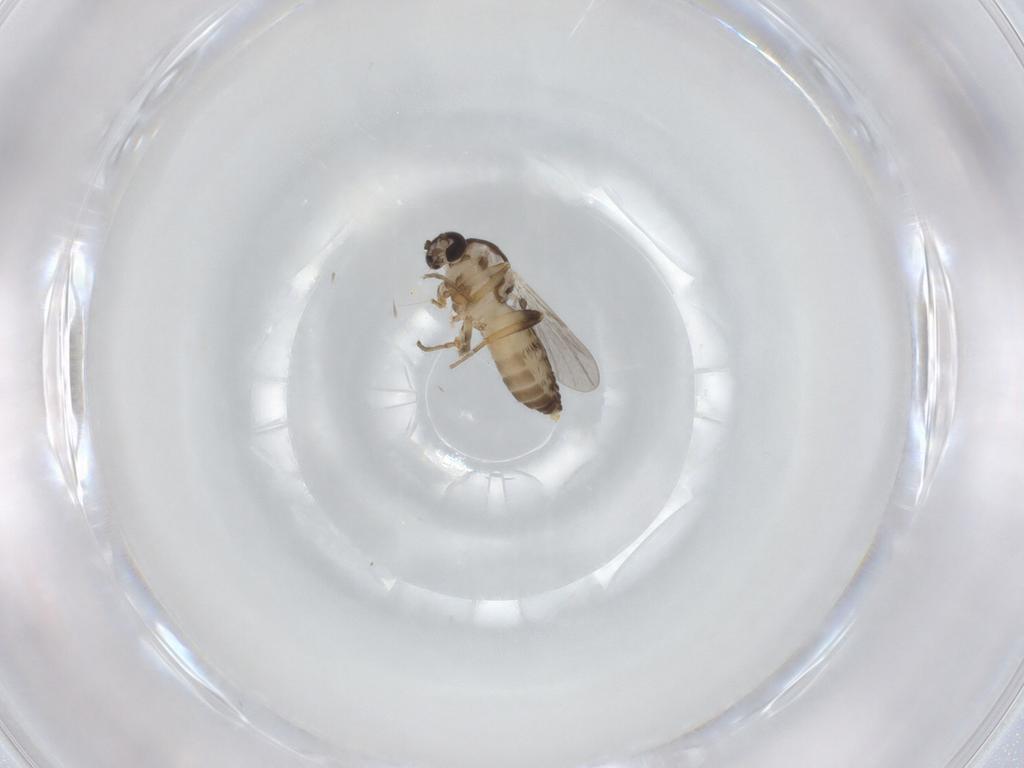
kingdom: Animalia
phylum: Arthropoda
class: Insecta
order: Diptera
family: Ceratopogonidae
